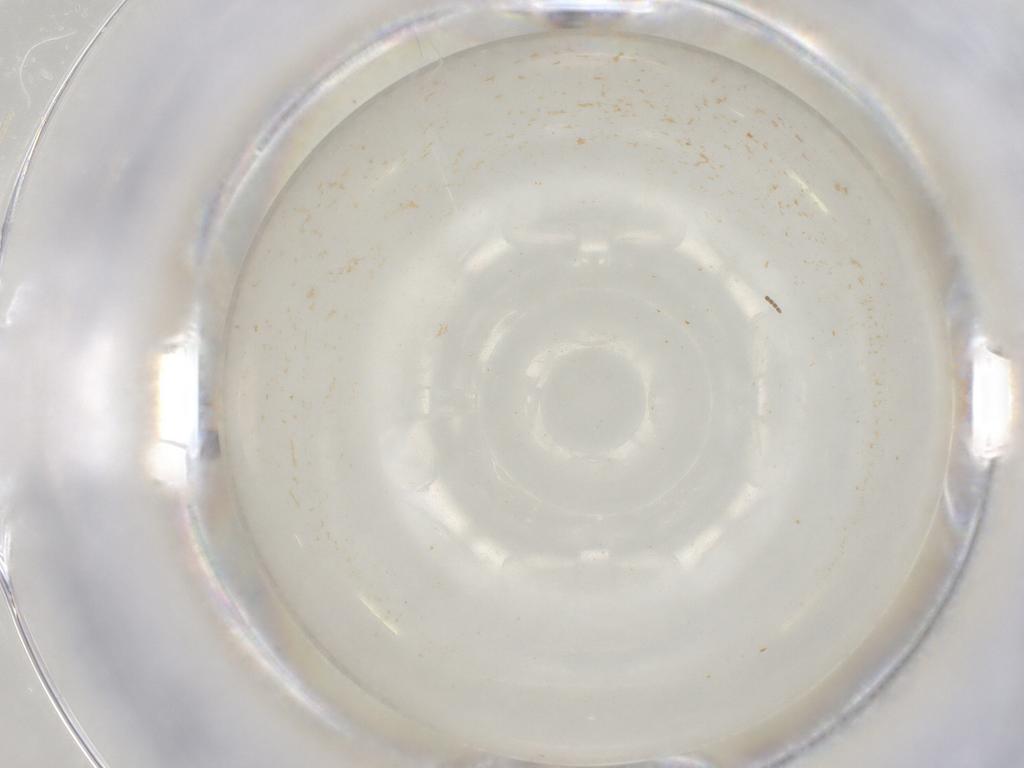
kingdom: Animalia
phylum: Arthropoda
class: Insecta
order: Diptera
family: Sciaridae
